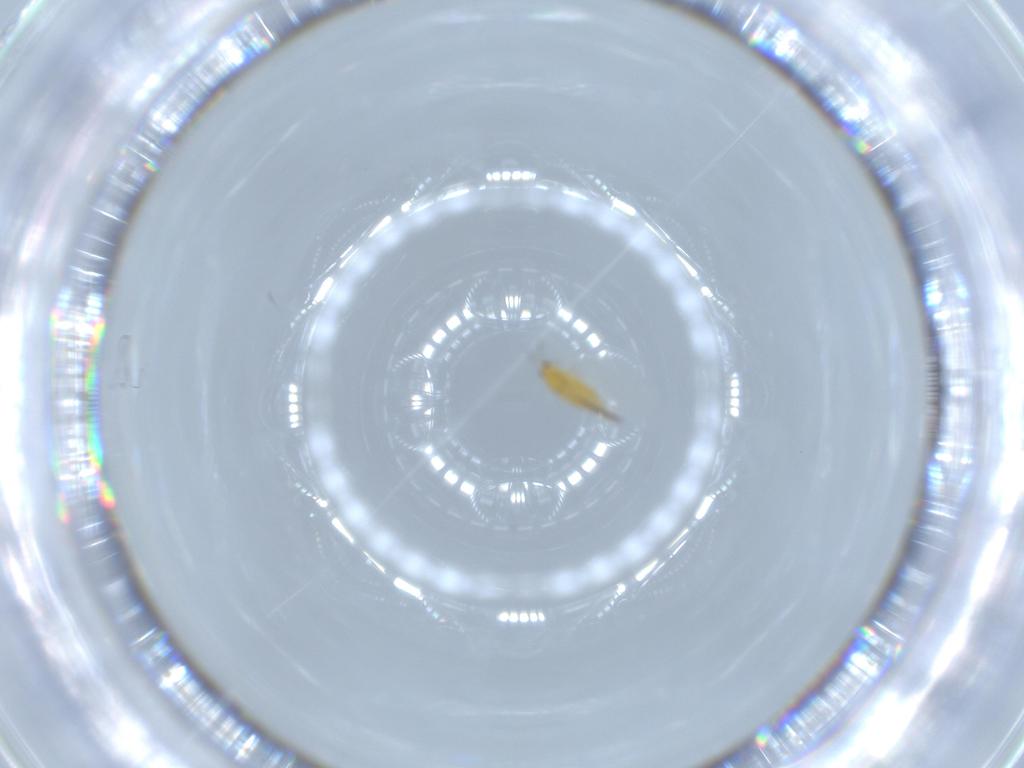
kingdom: Animalia
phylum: Arthropoda
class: Insecta
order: Thysanoptera
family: Thripidae
